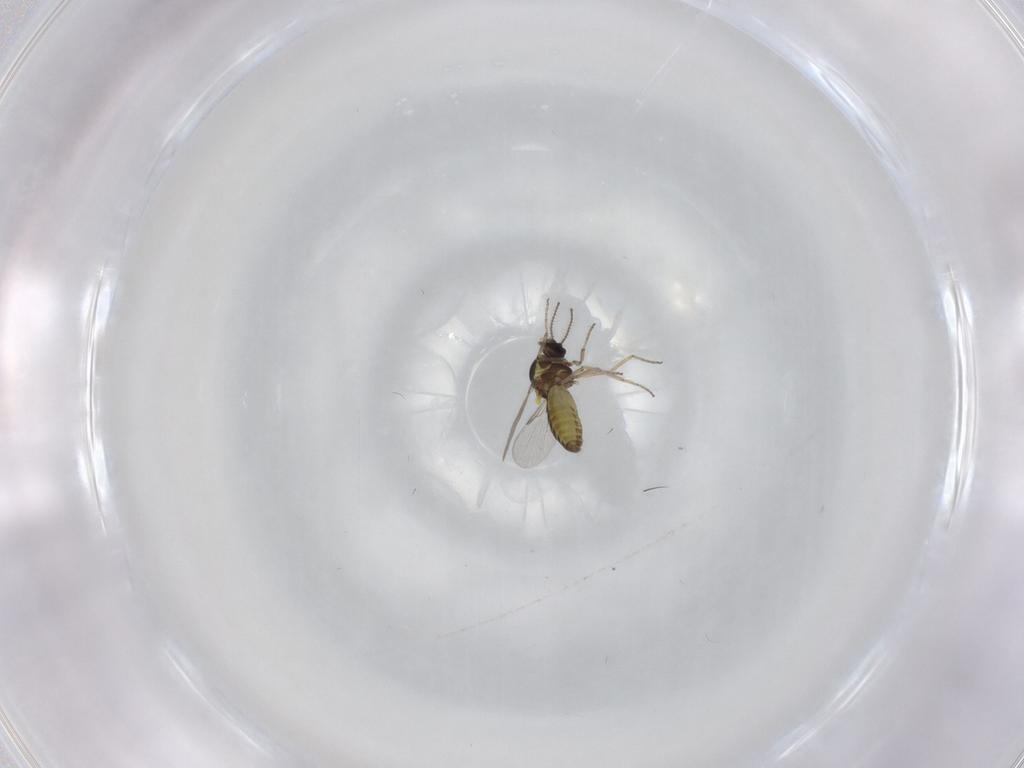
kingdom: Animalia
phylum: Arthropoda
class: Insecta
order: Diptera
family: Ceratopogonidae
